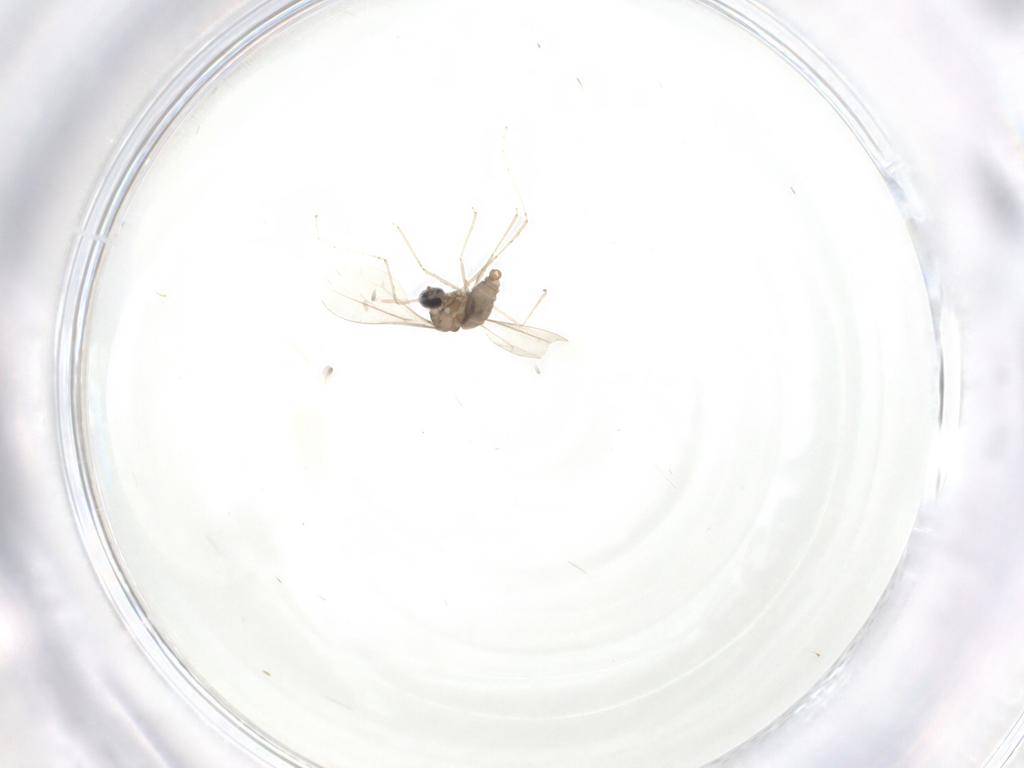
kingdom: Animalia
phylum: Arthropoda
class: Insecta
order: Diptera
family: Cecidomyiidae
